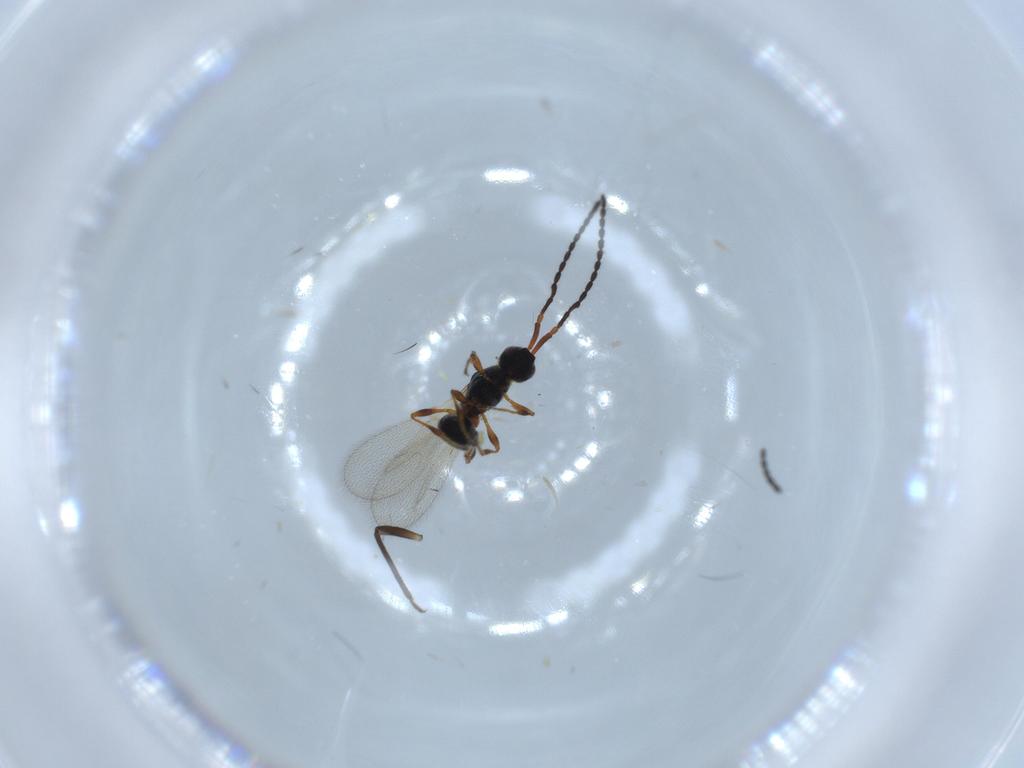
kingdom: Animalia
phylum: Arthropoda
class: Insecta
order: Hymenoptera
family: Diapriidae
